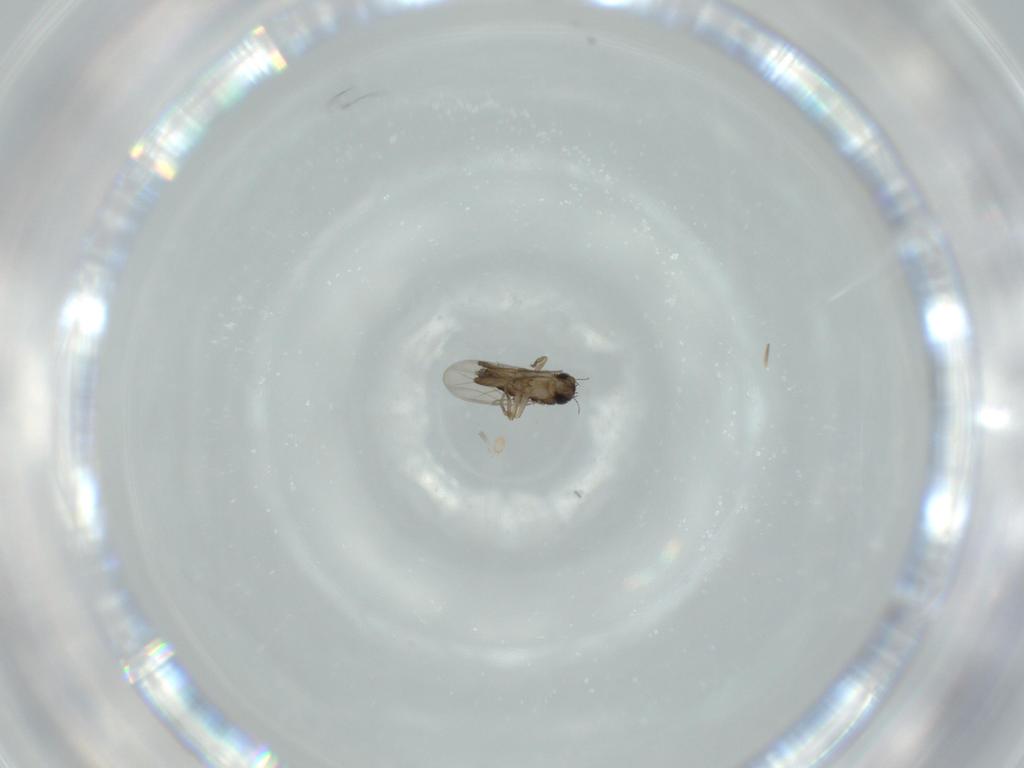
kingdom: Animalia
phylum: Arthropoda
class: Insecta
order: Diptera
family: Phoridae
